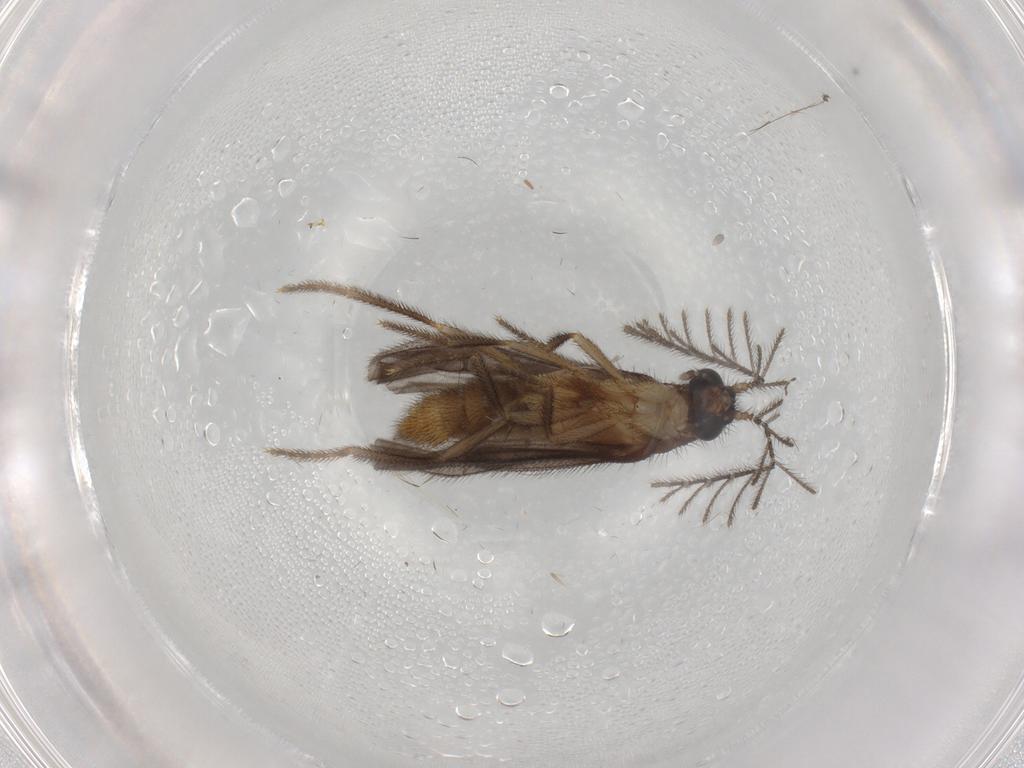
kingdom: Animalia
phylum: Arthropoda
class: Insecta
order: Coleoptera
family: Phengodidae
